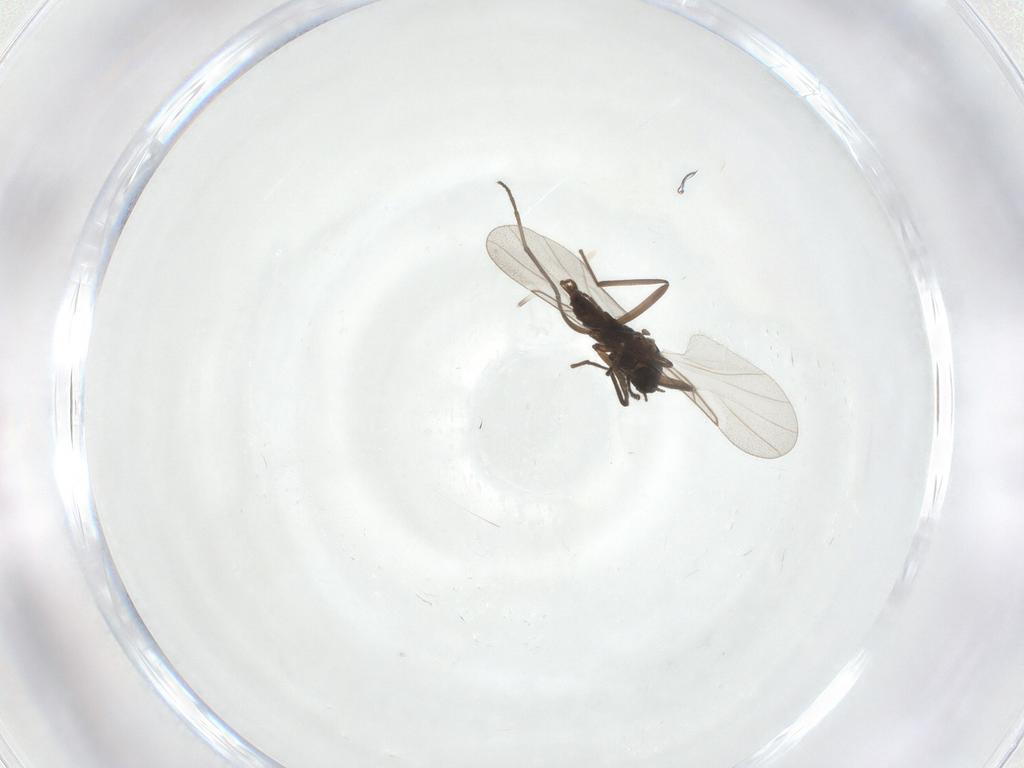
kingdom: Animalia
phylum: Arthropoda
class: Insecta
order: Diptera
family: Cecidomyiidae
